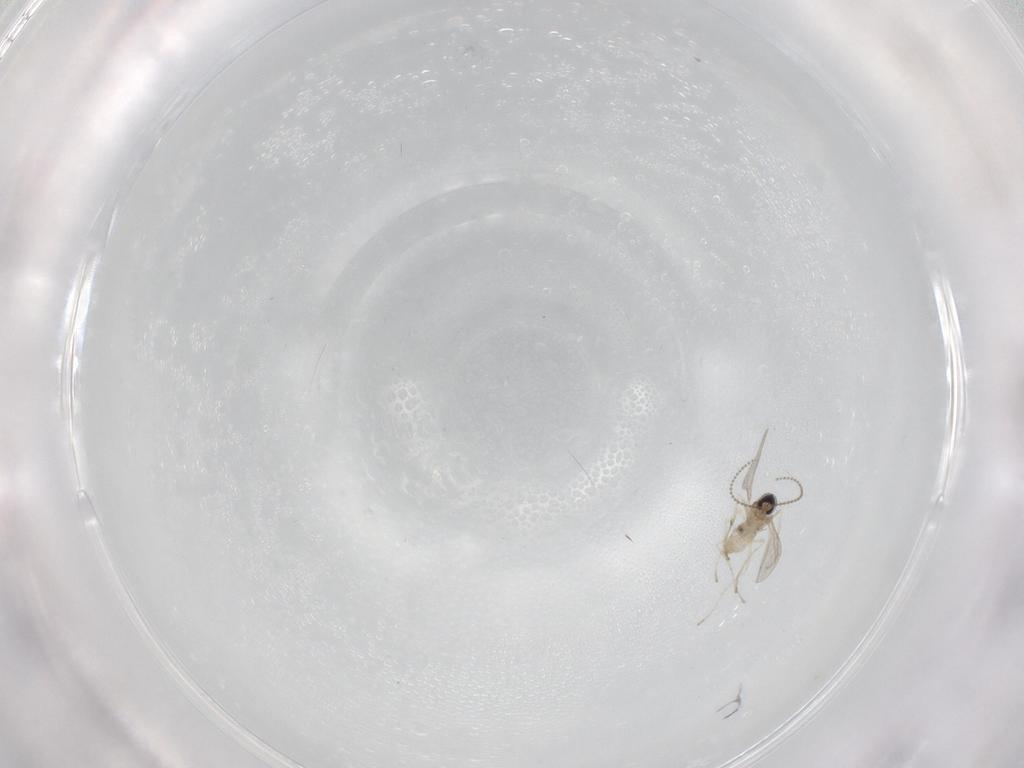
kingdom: Animalia
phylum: Arthropoda
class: Insecta
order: Diptera
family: Cecidomyiidae
